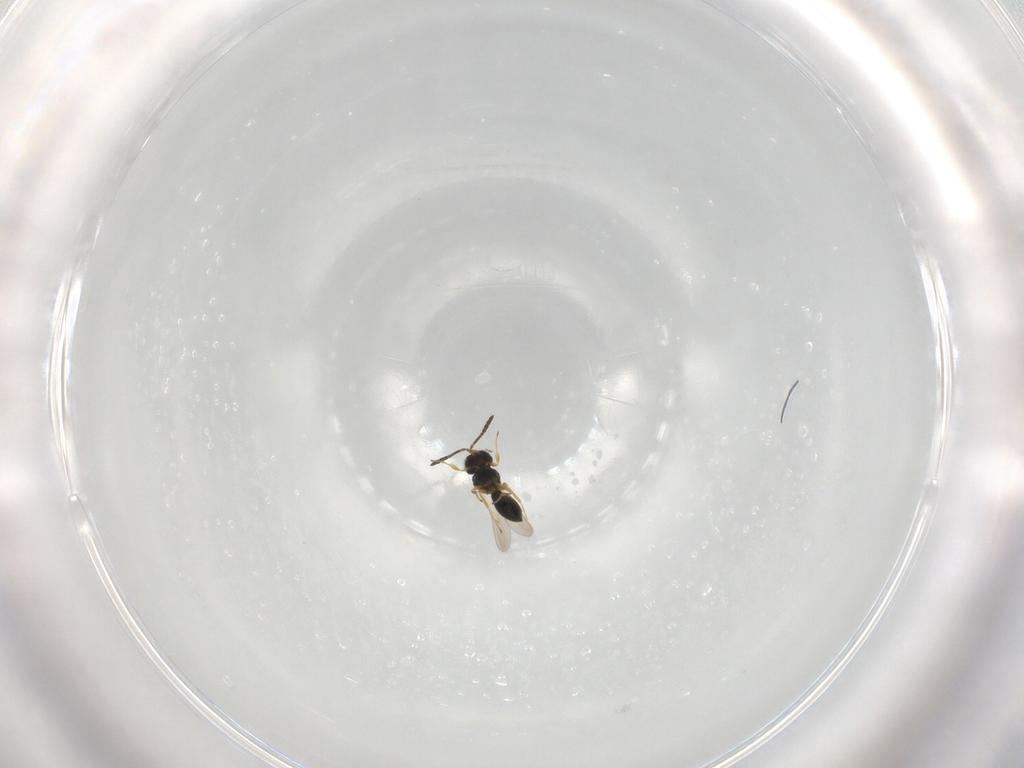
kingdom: Animalia
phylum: Arthropoda
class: Insecta
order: Hymenoptera
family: Scelionidae
